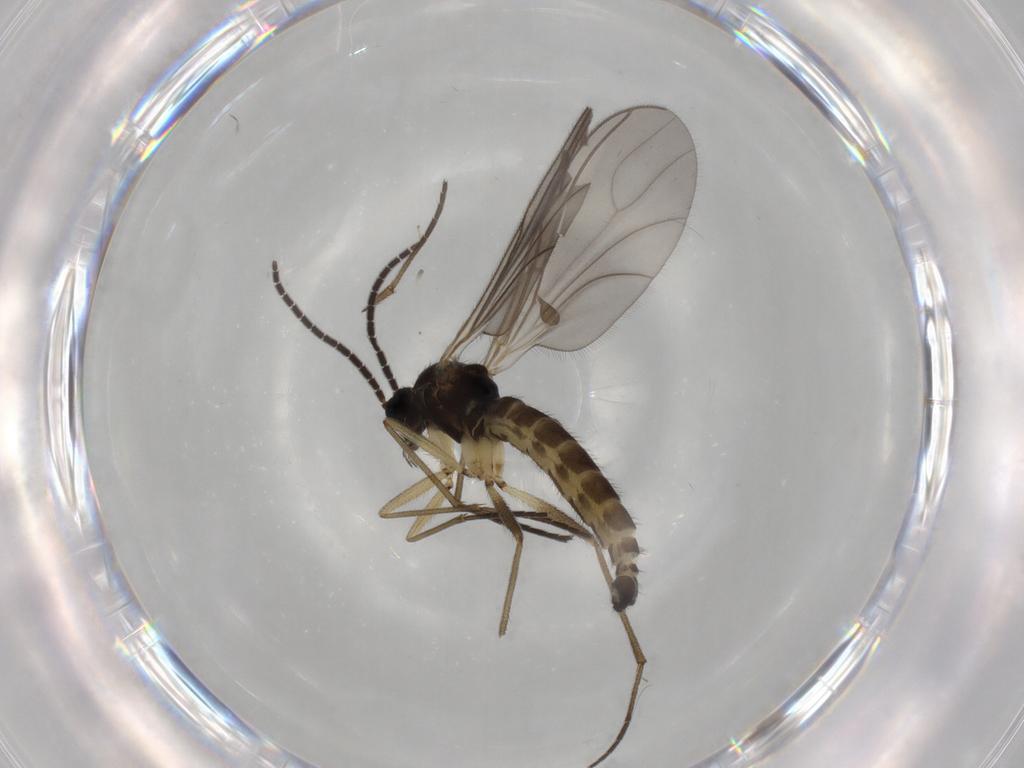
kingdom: Animalia
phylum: Arthropoda
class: Insecta
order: Diptera
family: Sciaridae
